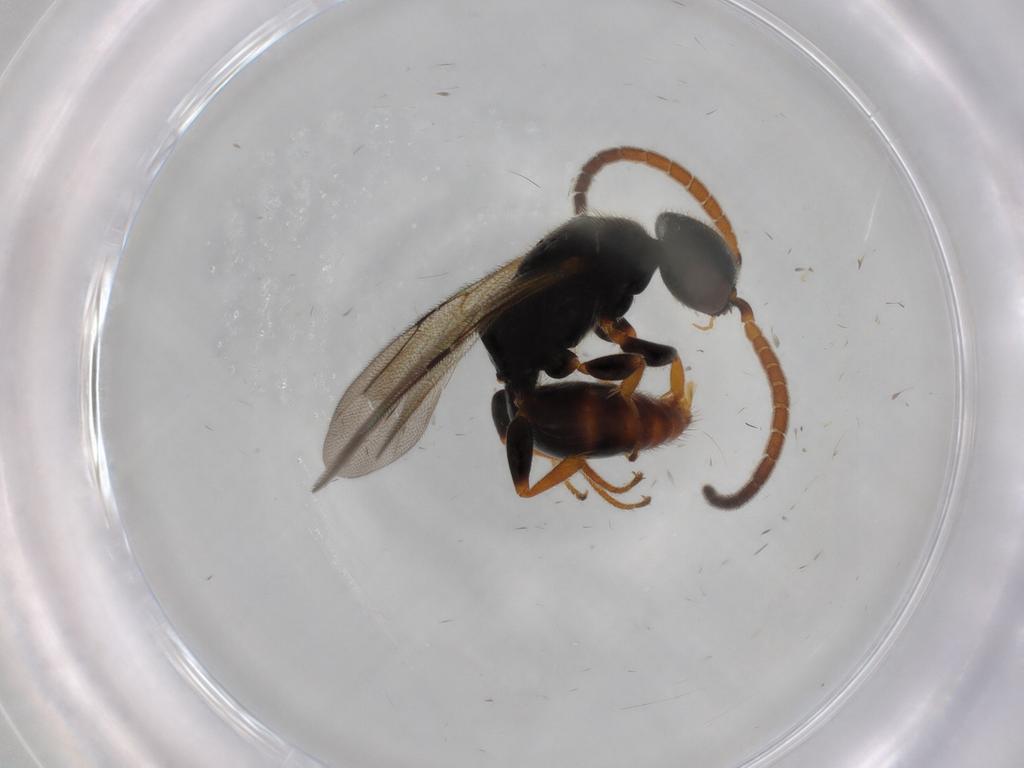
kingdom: Animalia
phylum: Arthropoda
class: Insecta
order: Hymenoptera
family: Bethylidae
